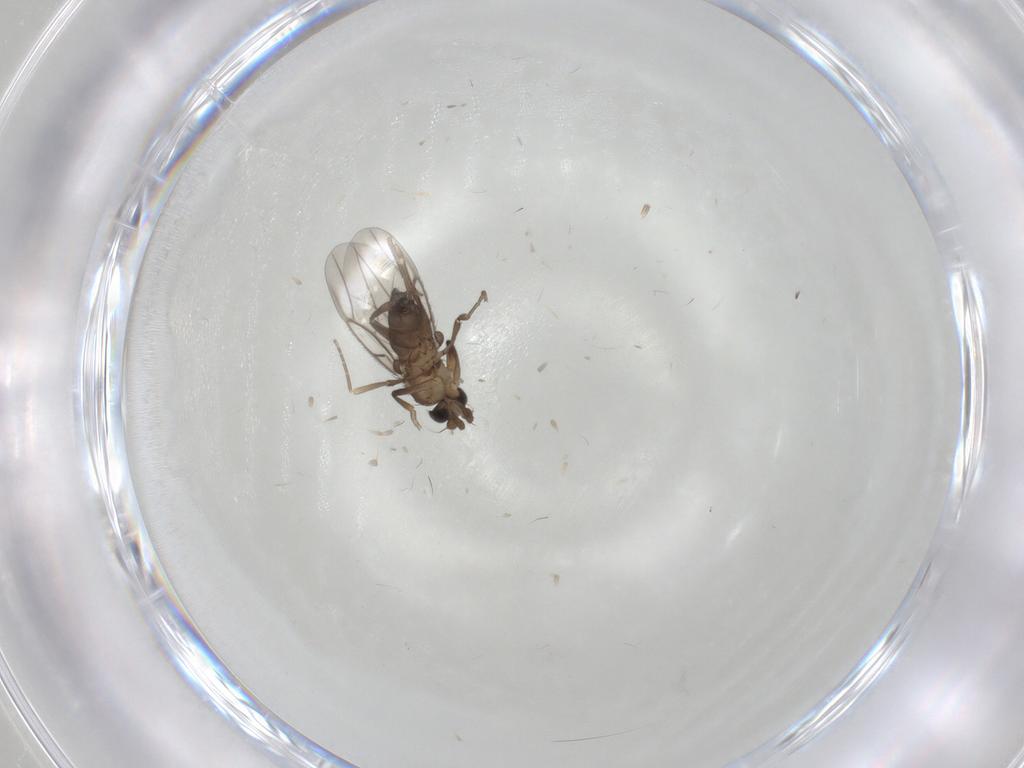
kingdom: Animalia
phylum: Arthropoda
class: Insecta
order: Diptera
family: Phoridae
